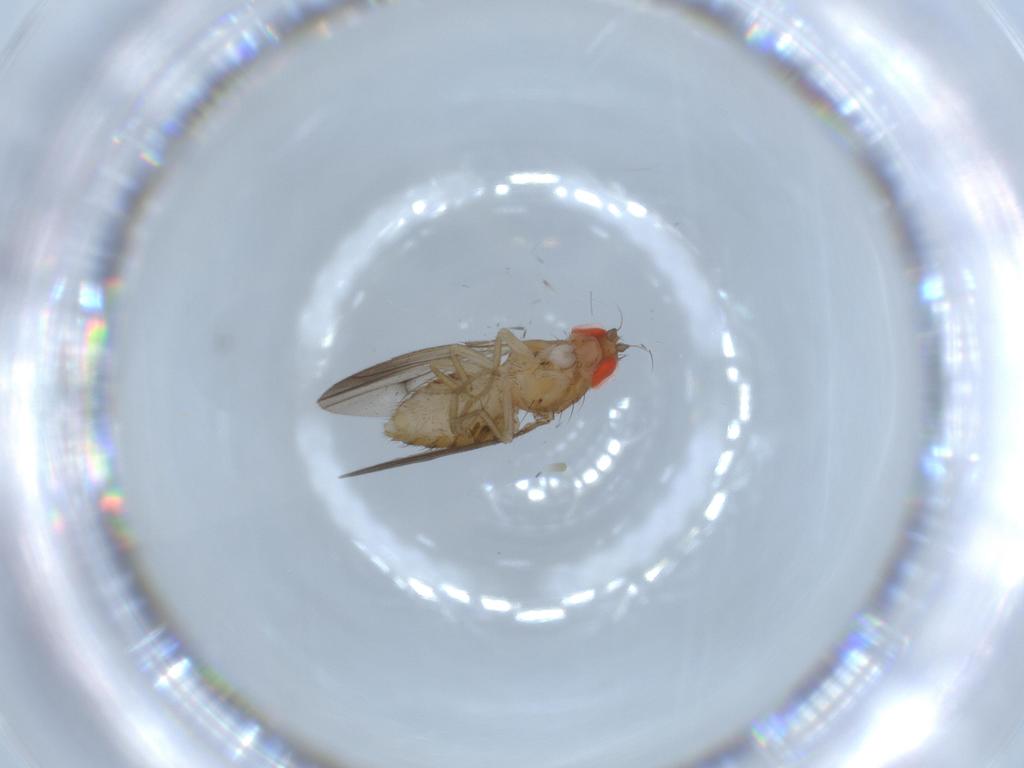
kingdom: Animalia
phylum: Arthropoda
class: Insecta
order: Diptera
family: Drosophilidae
